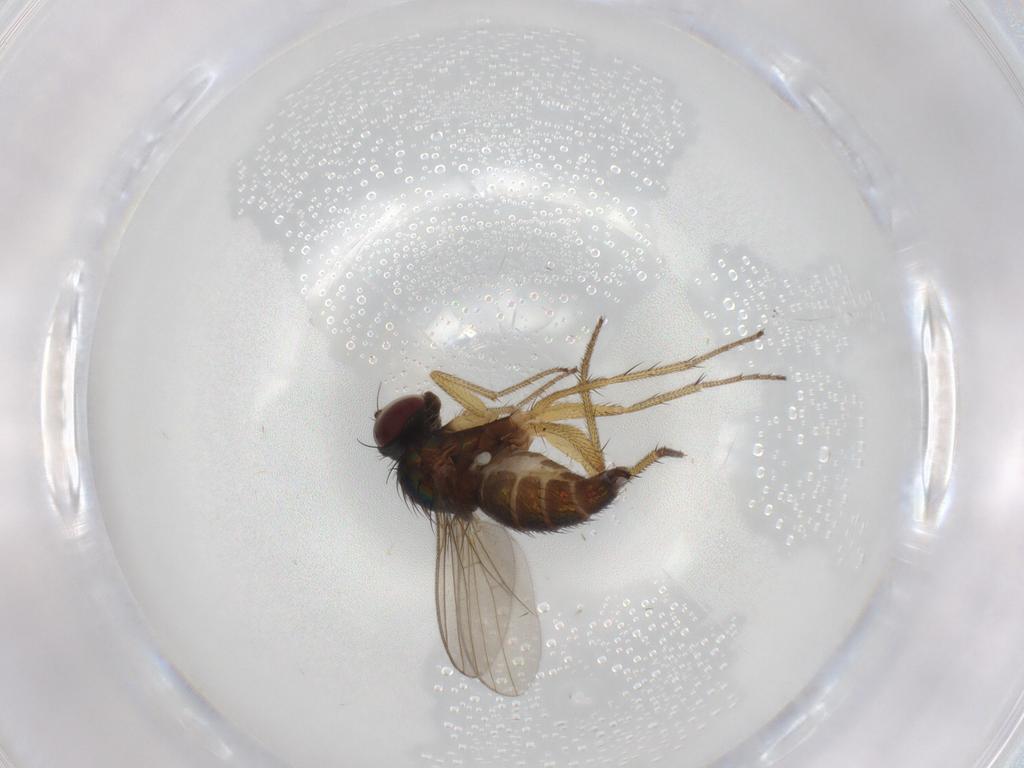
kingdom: Animalia
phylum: Arthropoda
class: Insecta
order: Diptera
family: Dolichopodidae
